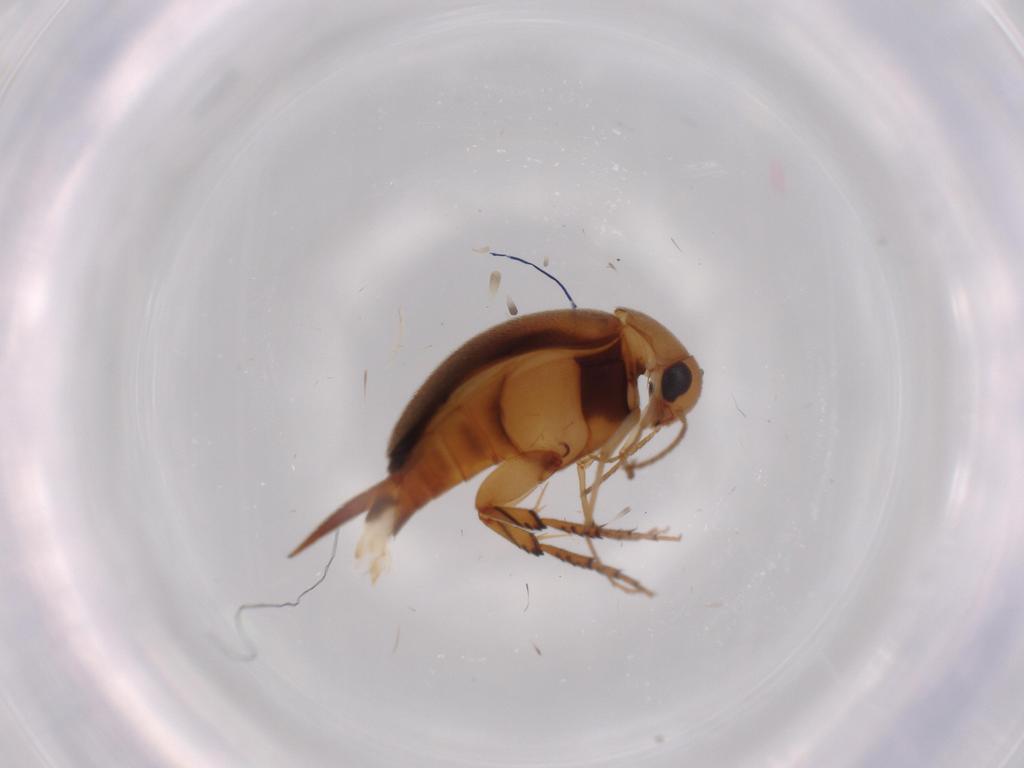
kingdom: Animalia
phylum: Arthropoda
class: Insecta
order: Coleoptera
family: Mordellidae
